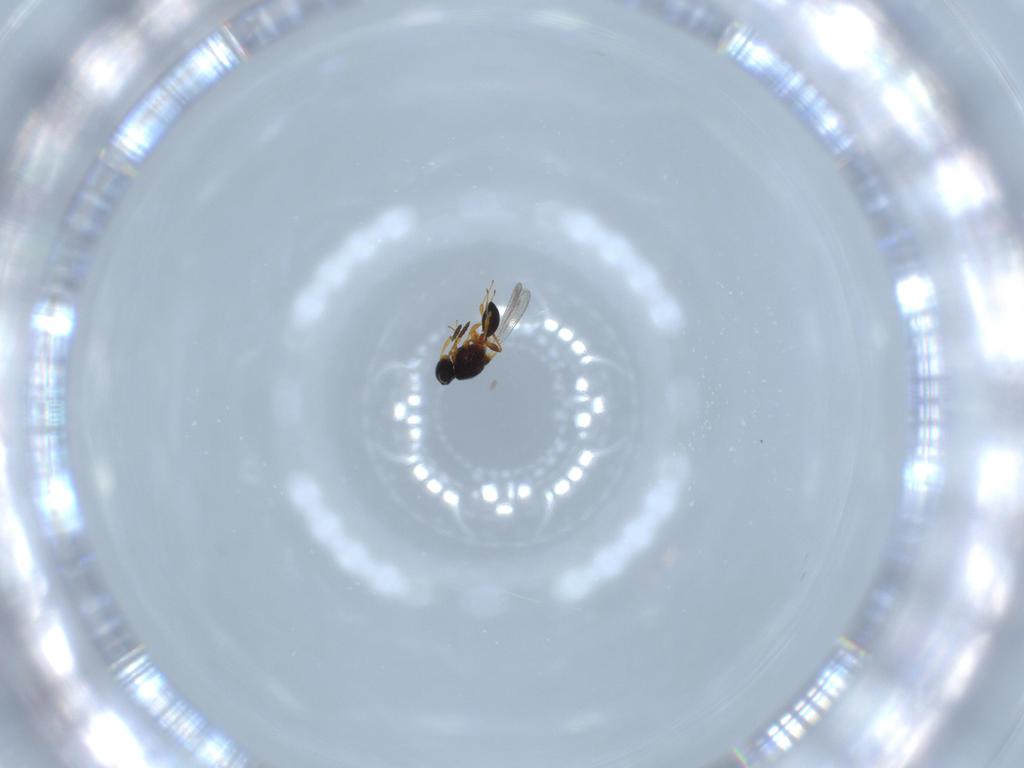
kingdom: Animalia
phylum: Arthropoda
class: Insecta
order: Hymenoptera
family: Platygastridae
